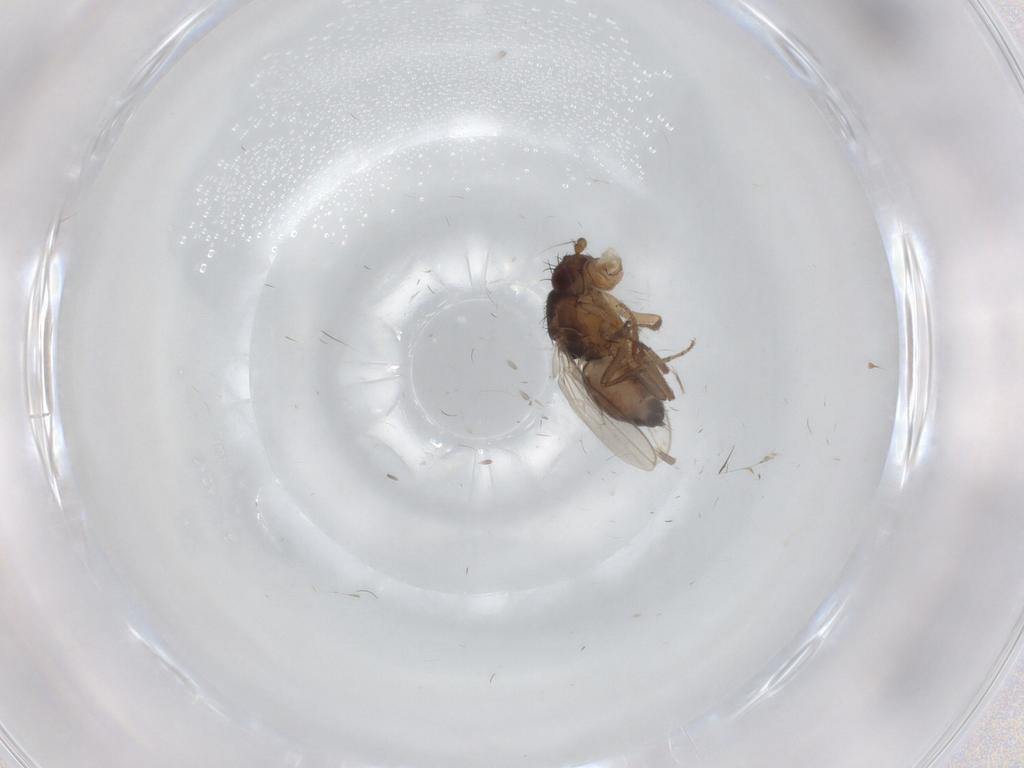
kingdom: Animalia
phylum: Arthropoda
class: Insecta
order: Diptera
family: Sphaeroceridae
